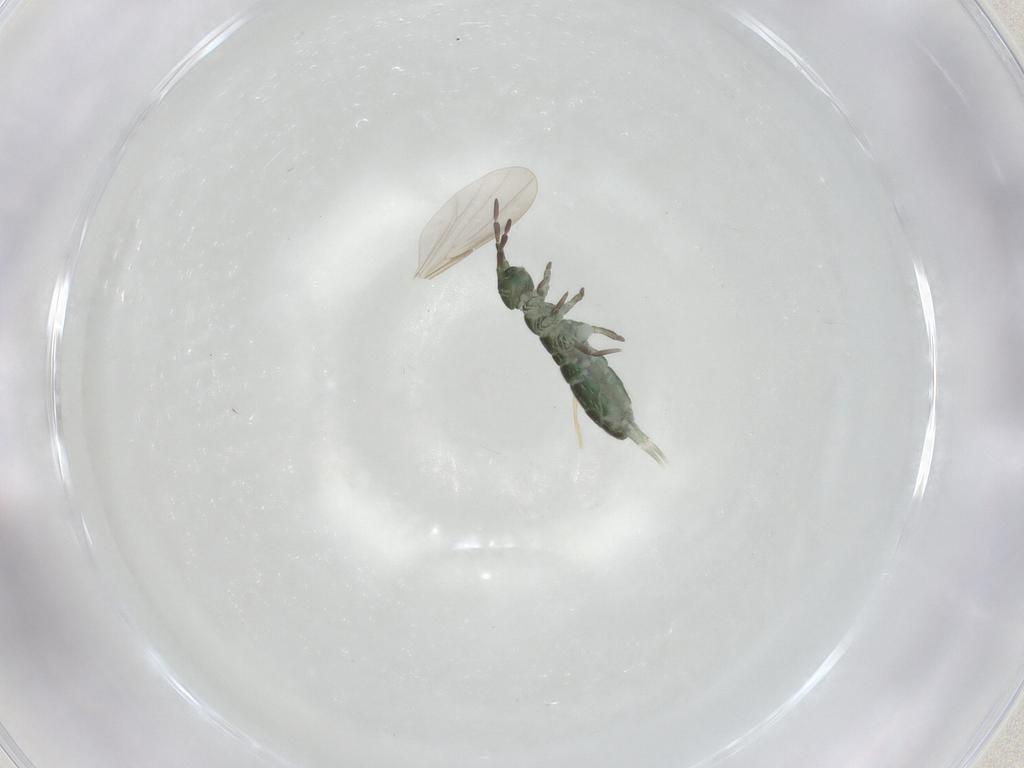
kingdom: Animalia
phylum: Arthropoda
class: Collembola
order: Entomobryomorpha
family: Isotomidae
